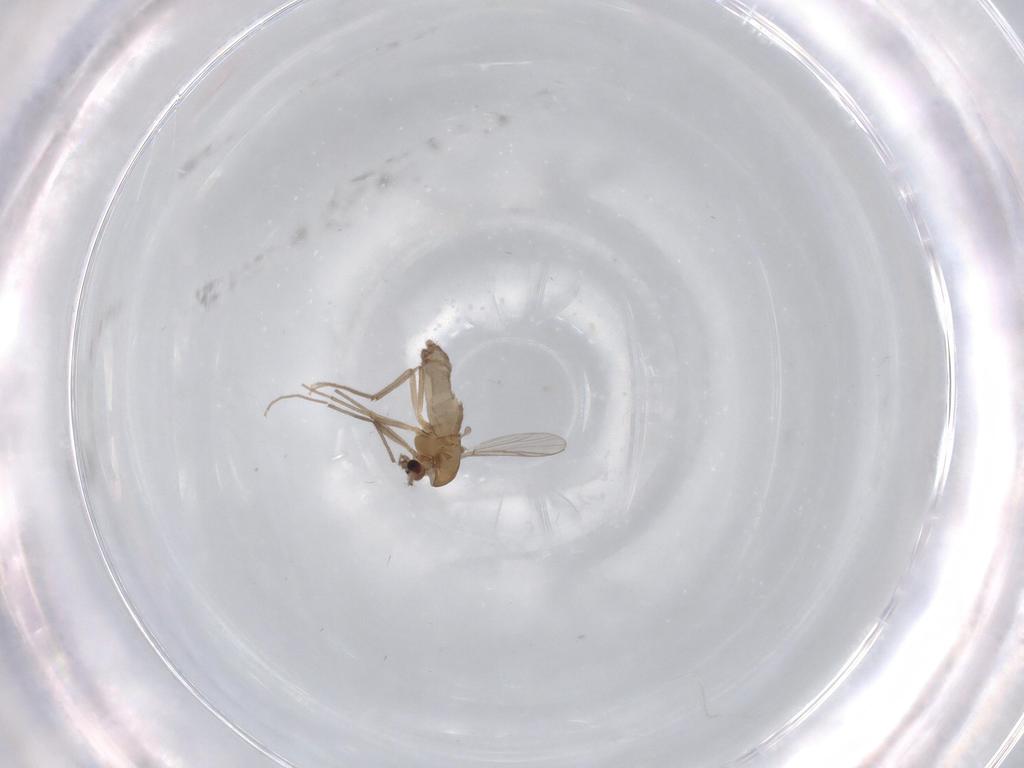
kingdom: Animalia
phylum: Arthropoda
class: Insecta
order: Diptera
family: Chironomidae
